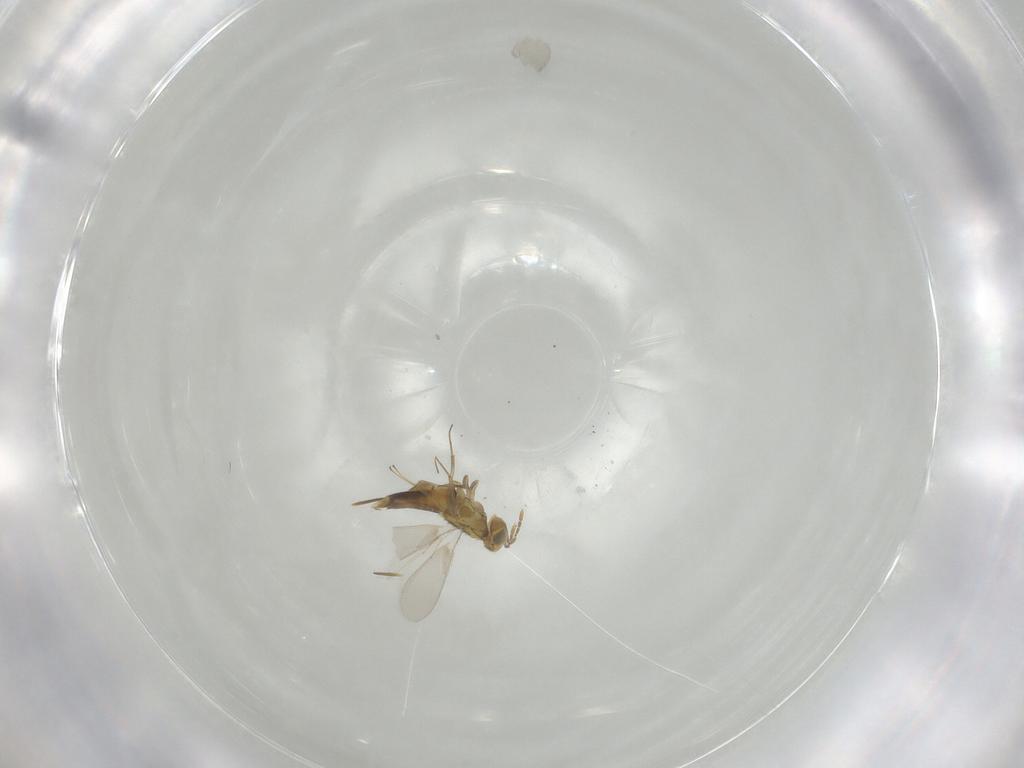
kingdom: Animalia
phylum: Arthropoda
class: Insecta
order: Hymenoptera
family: Aphelinidae
